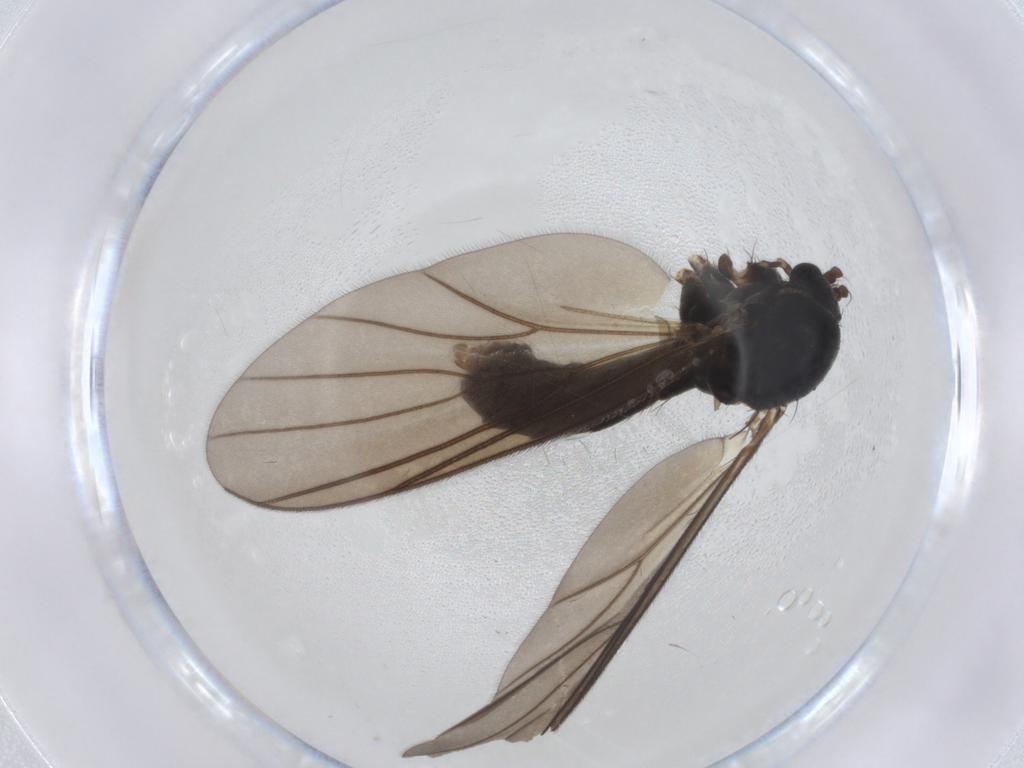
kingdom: Animalia
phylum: Arthropoda
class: Insecta
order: Diptera
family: Mycetophilidae
